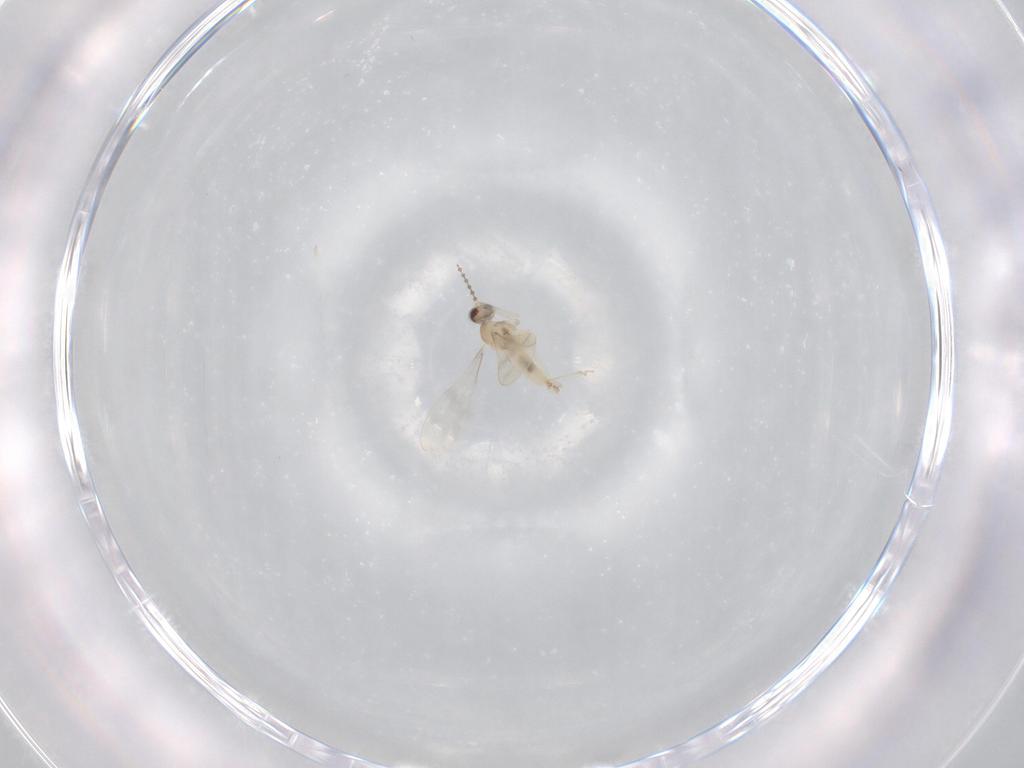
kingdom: Animalia
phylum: Arthropoda
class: Insecta
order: Diptera
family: Cecidomyiidae
